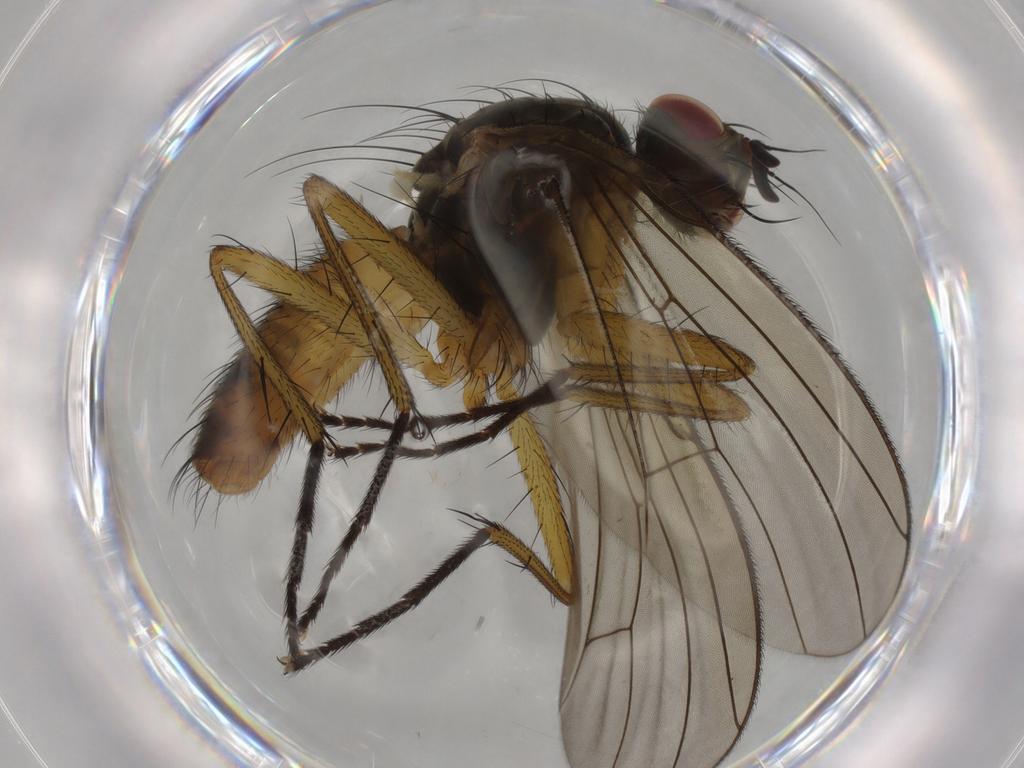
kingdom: Animalia
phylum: Arthropoda
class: Insecta
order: Diptera
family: Muscidae
